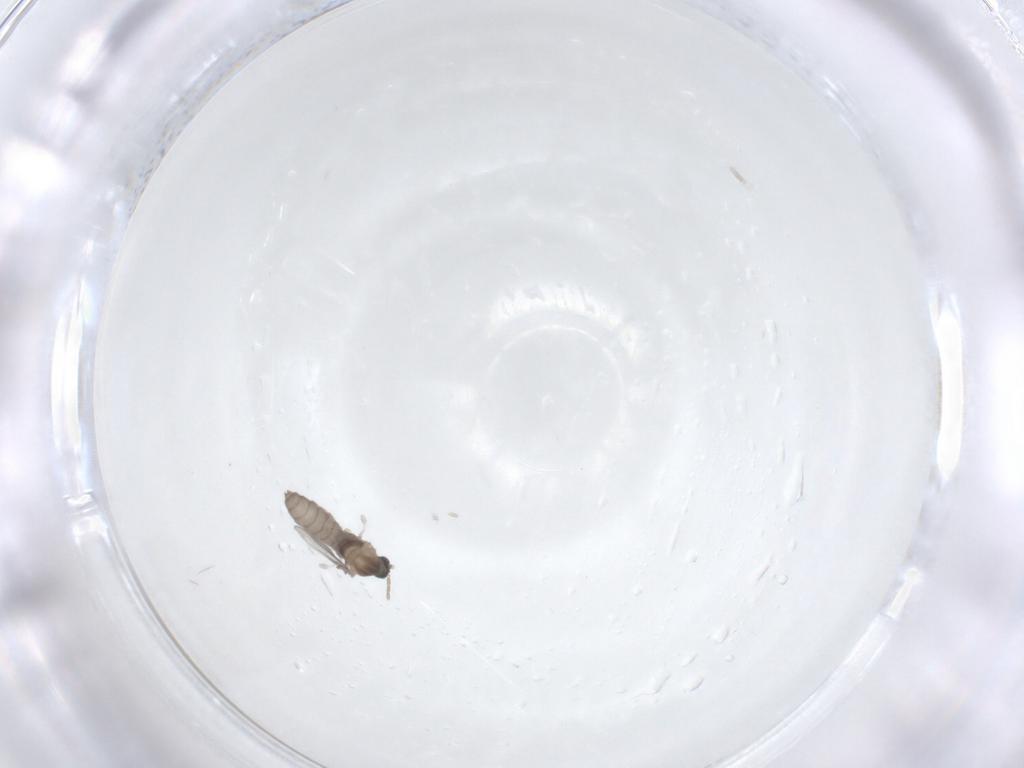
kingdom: Animalia
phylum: Arthropoda
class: Insecta
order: Diptera
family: Cecidomyiidae
